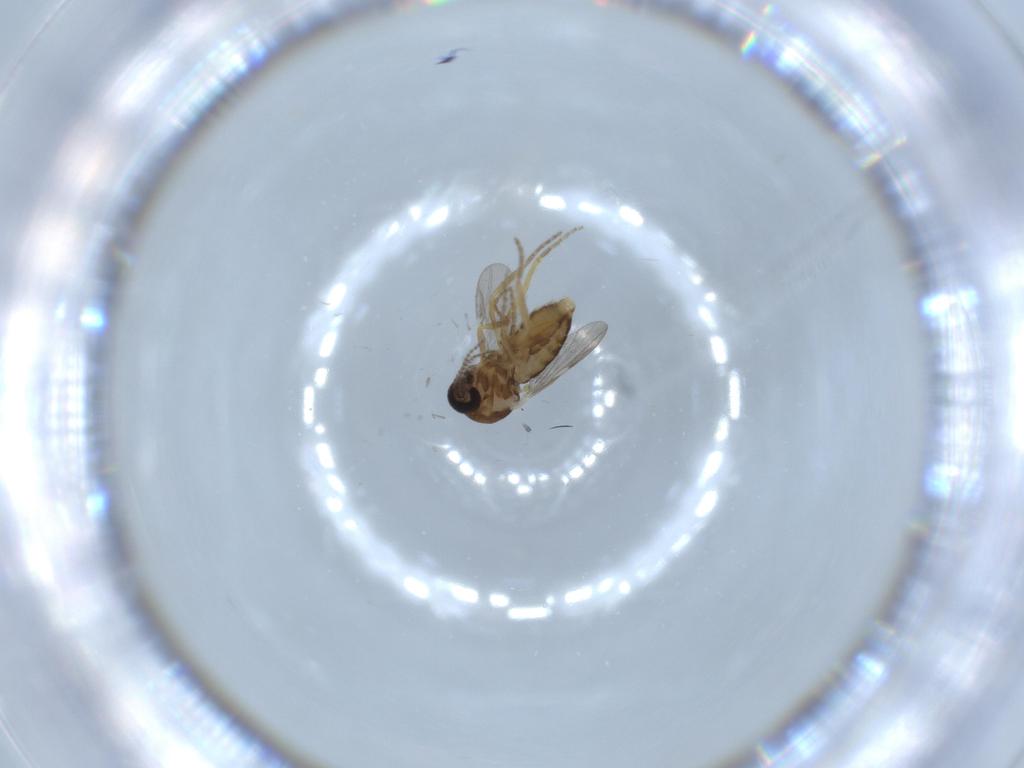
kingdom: Animalia
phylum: Arthropoda
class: Insecta
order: Diptera
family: Ceratopogonidae
